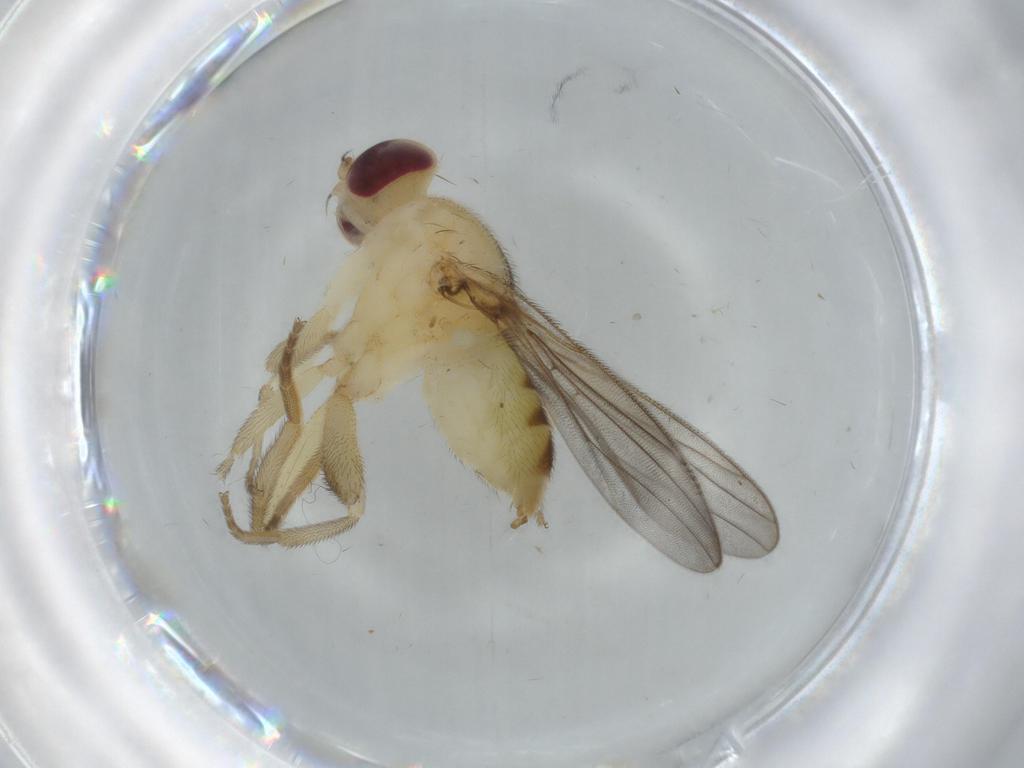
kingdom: Animalia
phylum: Arthropoda
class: Insecta
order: Diptera
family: Chloropidae
